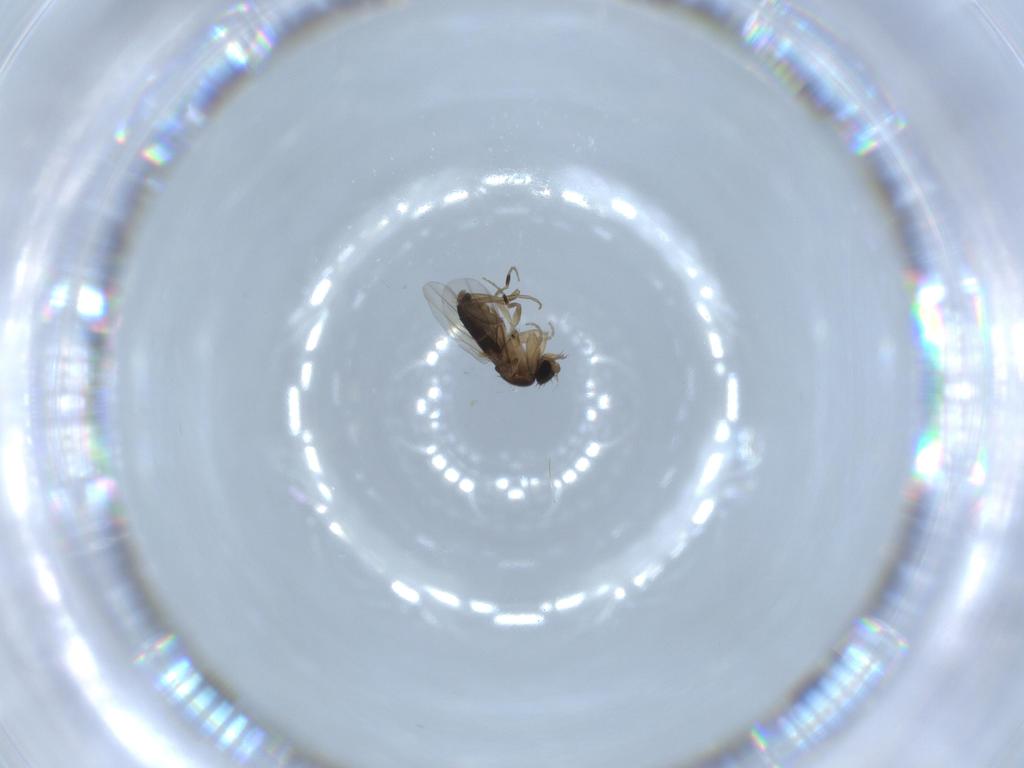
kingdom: Animalia
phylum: Arthropoda
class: Insecta
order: Diptera
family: Phoridae
